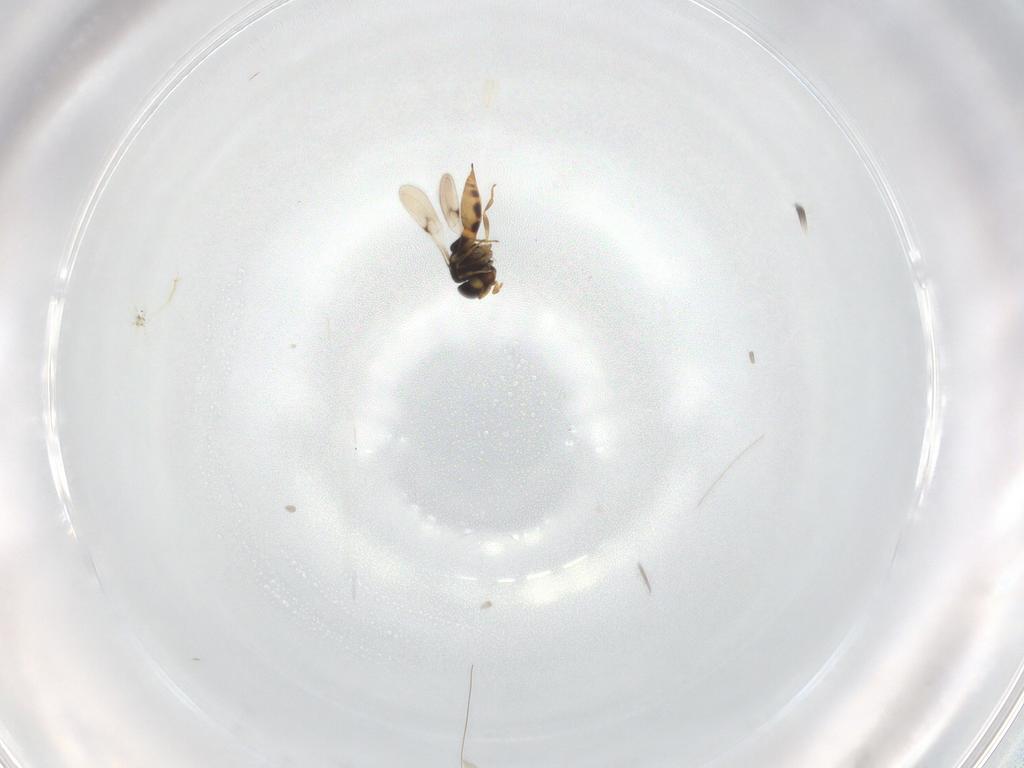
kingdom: Animalia
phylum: Arthropoda
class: Insecta
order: Hymenoptera
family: Scelionidae
